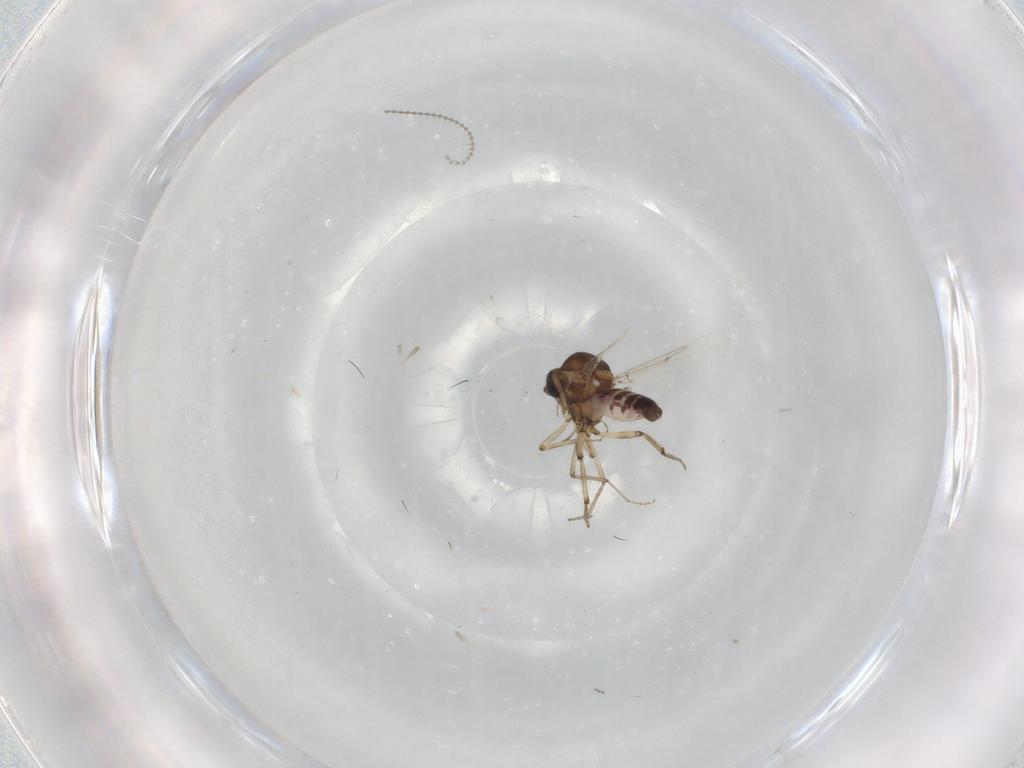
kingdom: Animalia
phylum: Arthropoda
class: Insecta
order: Diptera
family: Ceratopogonidae
